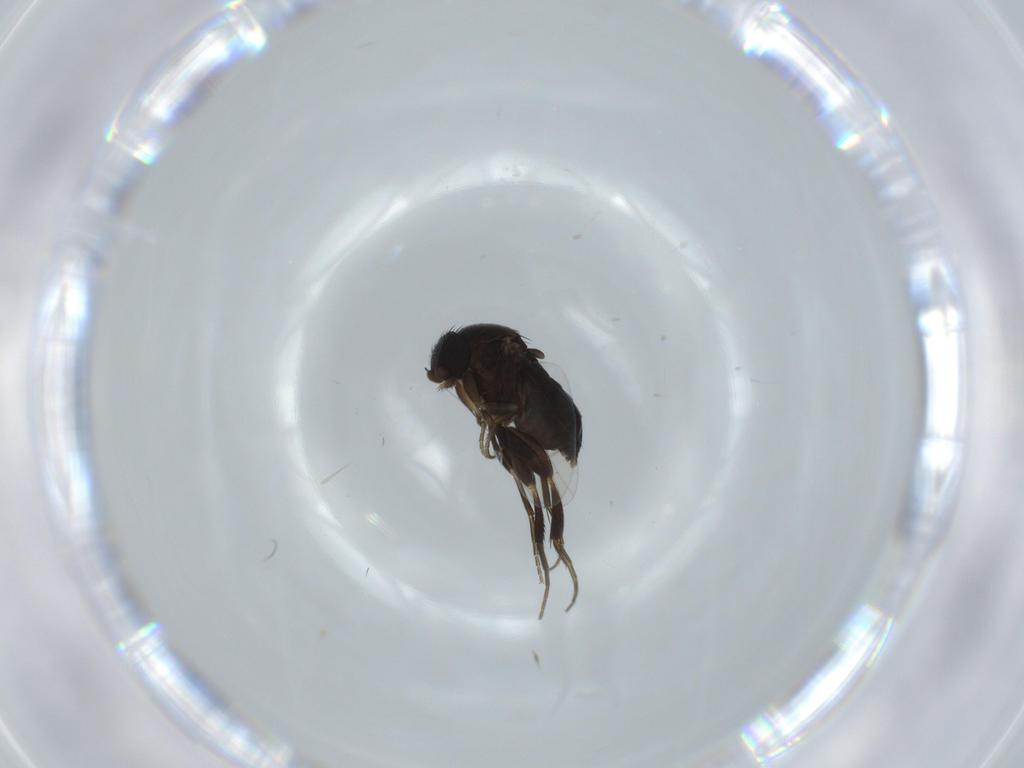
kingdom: Animalia
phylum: Arthropoda
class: Insecta
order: Diptera
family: Phoridae
